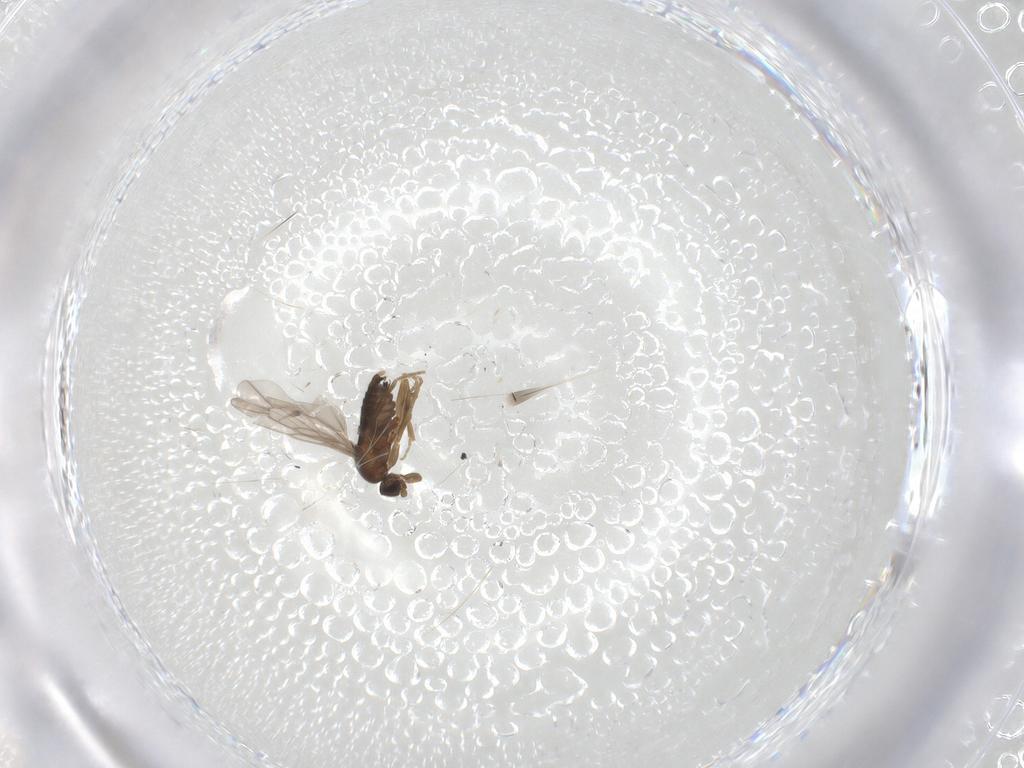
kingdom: Animalia
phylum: Arthropoda
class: Insecta
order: Diptera
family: Phoridae
